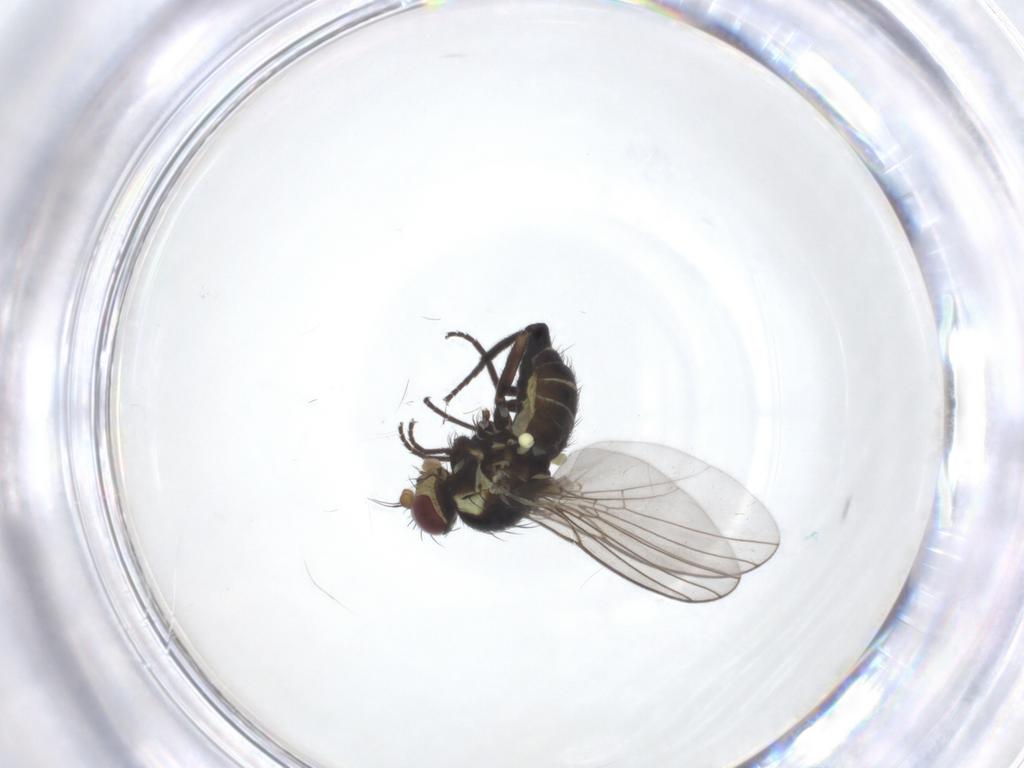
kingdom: Animalia
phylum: Arthropoda
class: Insecta
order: Diptera
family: Agromyzidae
